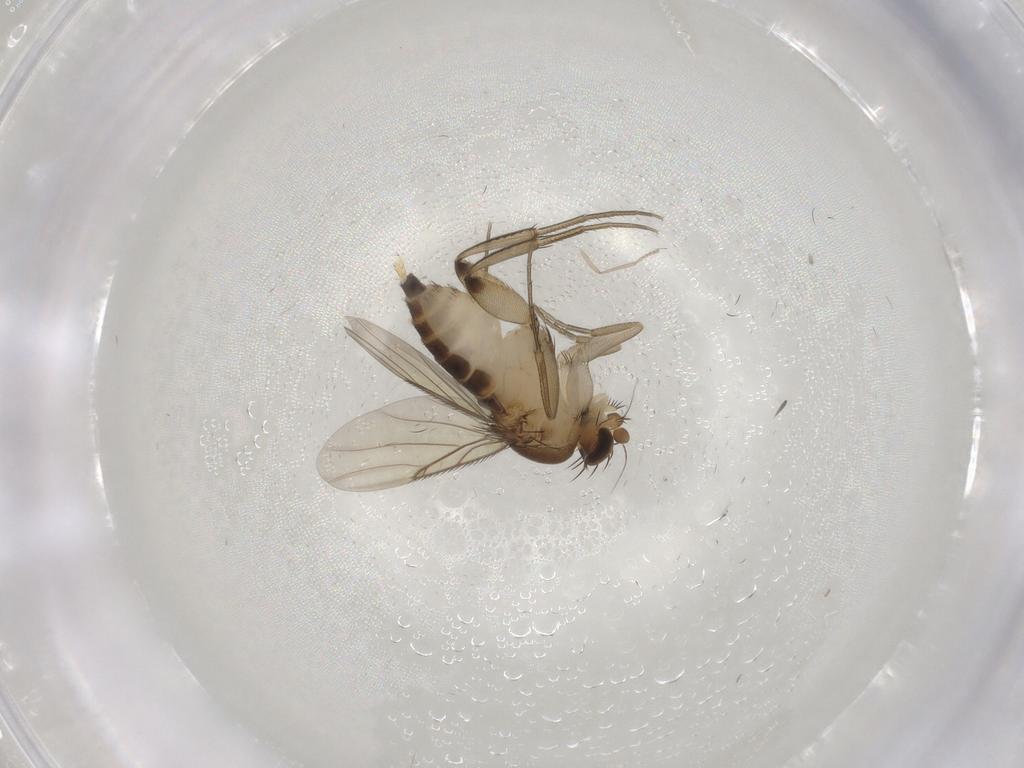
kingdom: Animalia
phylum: Arthropoda
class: Insecta
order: Diptera
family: Phoridae
